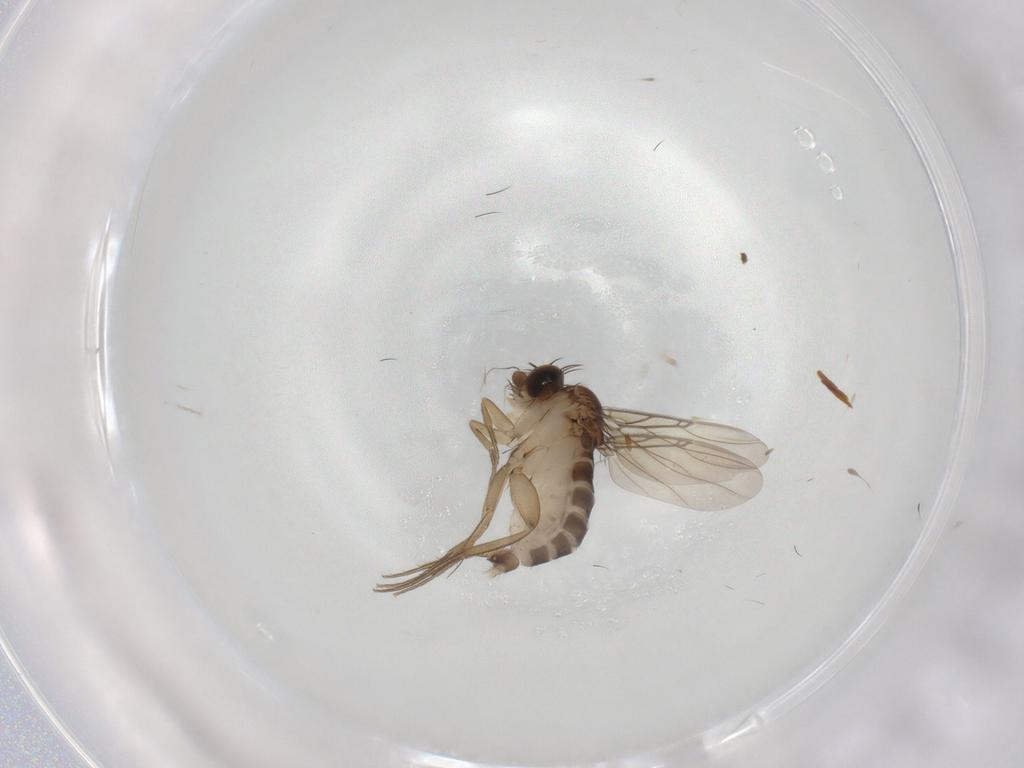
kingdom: Animalia
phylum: Arthropoda
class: Insecta
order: Diptera
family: Phoridae
